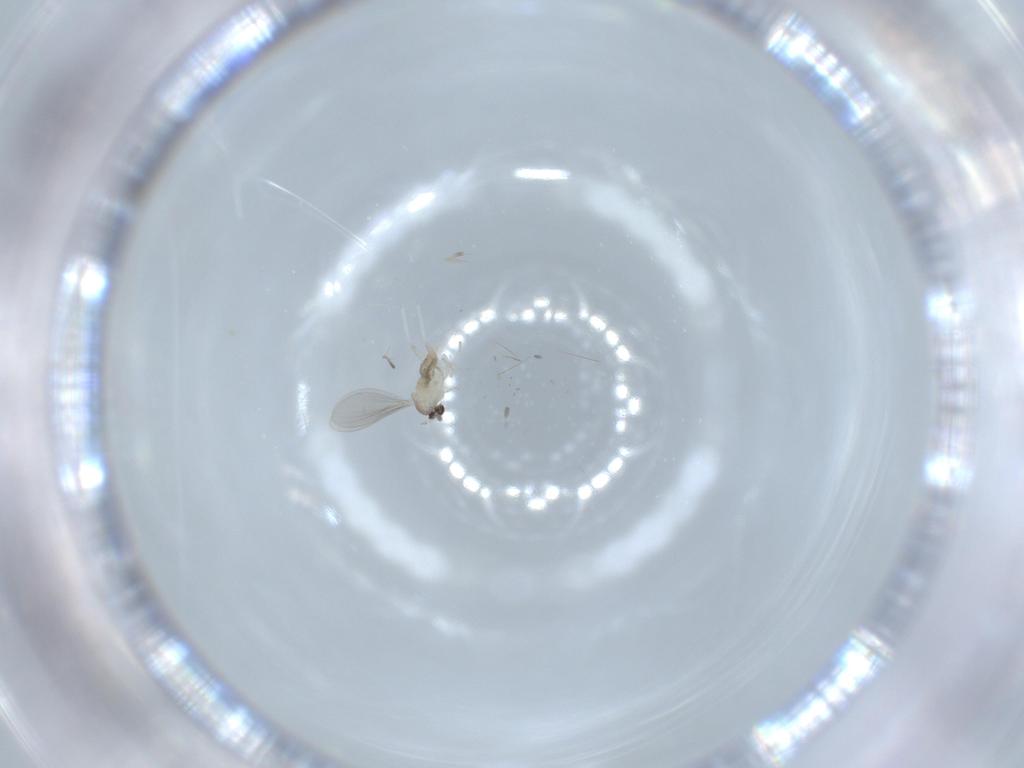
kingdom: Animalia
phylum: Arthropoda
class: Insecta
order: Diptera
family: Cecidomyiidae
